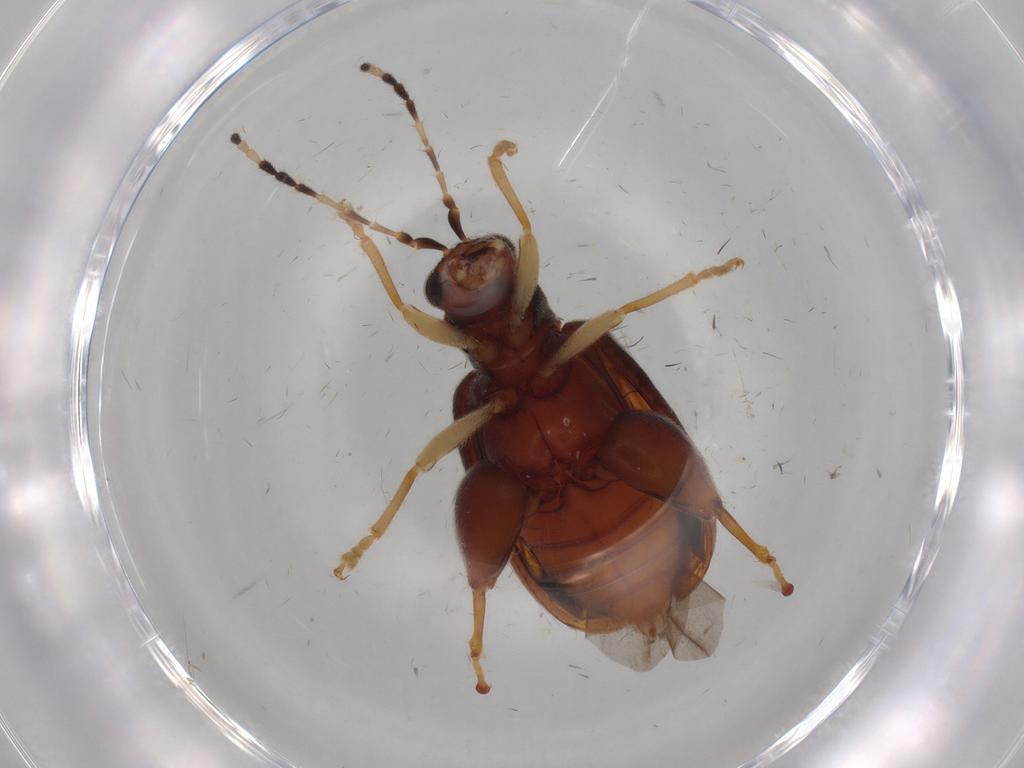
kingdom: Animalia
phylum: Arthropoda
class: Insecta
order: Coleoptera
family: Chrysomelidae
